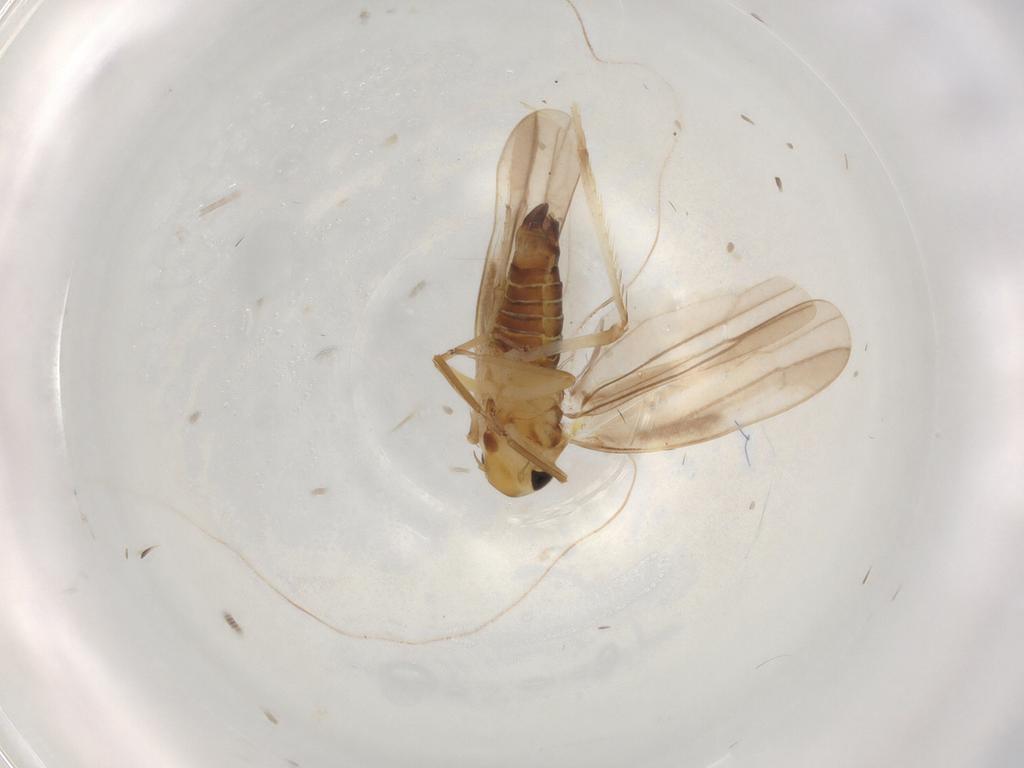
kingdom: Animalia
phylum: Arthropoda
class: Insecta
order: Hemiptera
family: Cicadellidae
